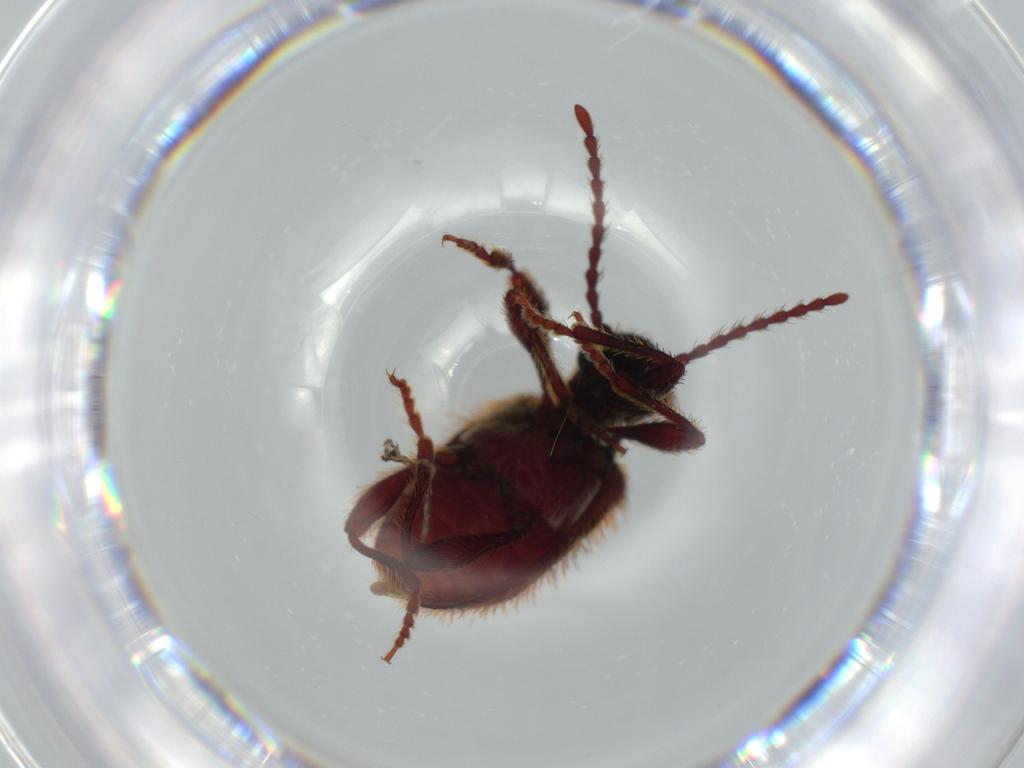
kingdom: Animalia
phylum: Arthropoda
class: Insecta
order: Coleoptera
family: Ptinidae
